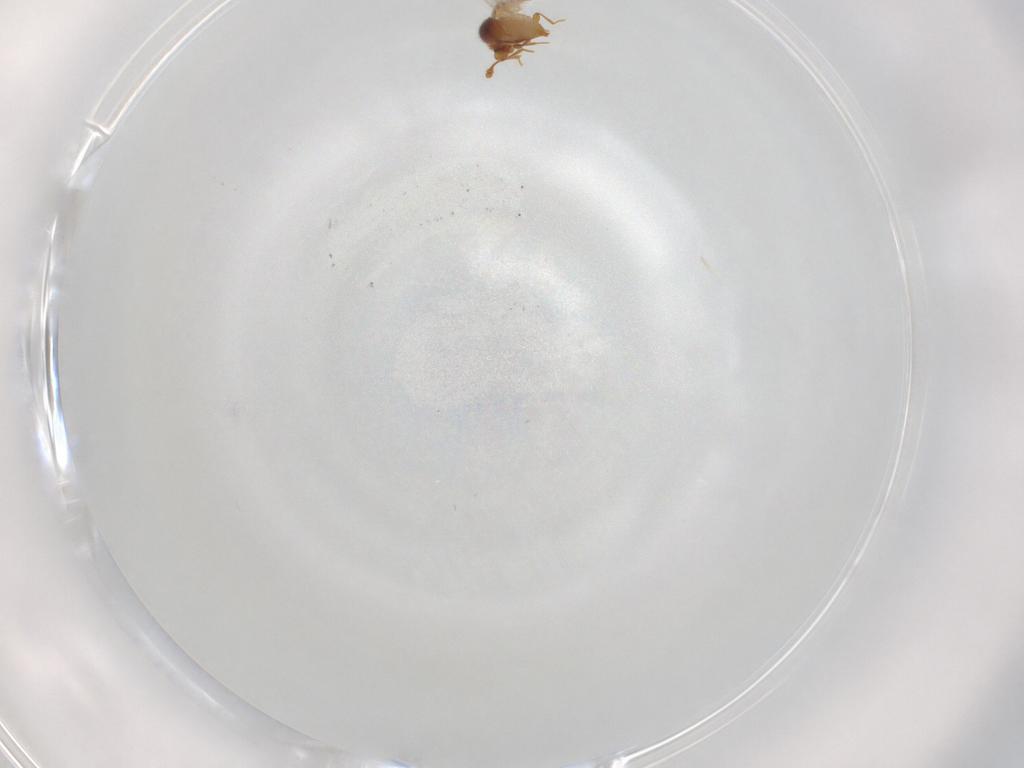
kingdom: Animalia
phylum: Arthropoda
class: Insecta
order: Coleoptera
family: Staphylinidae
